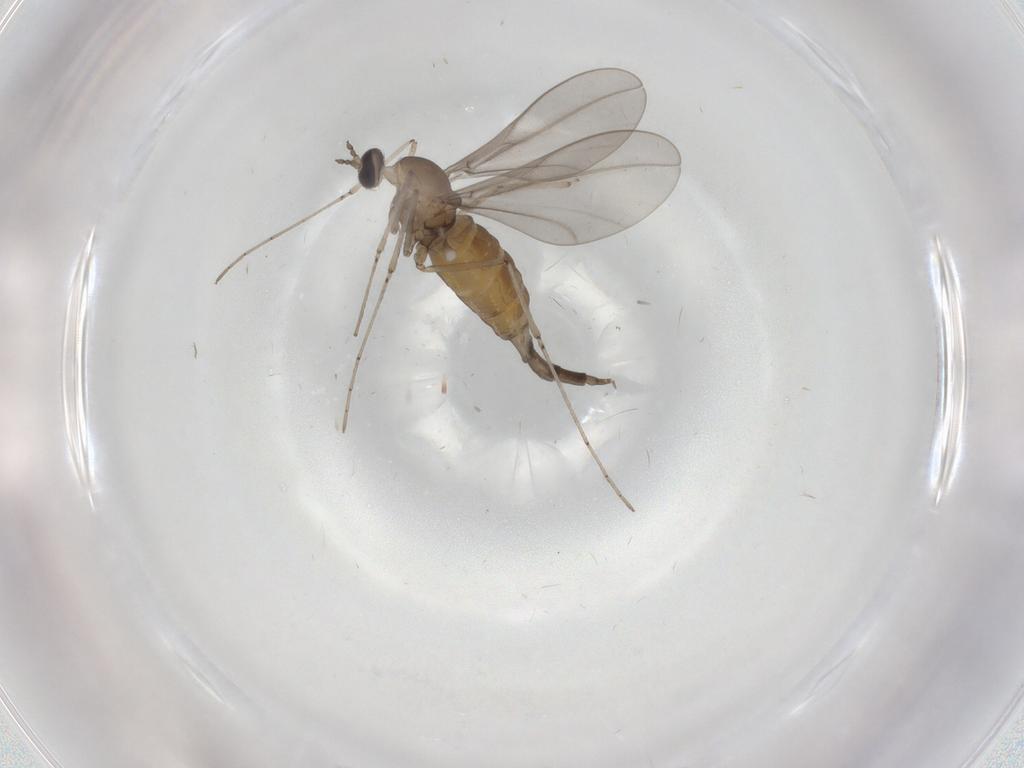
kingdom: Animalia
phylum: Arthropoda
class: Insecta
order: Diptera
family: Cecidomyiidae
